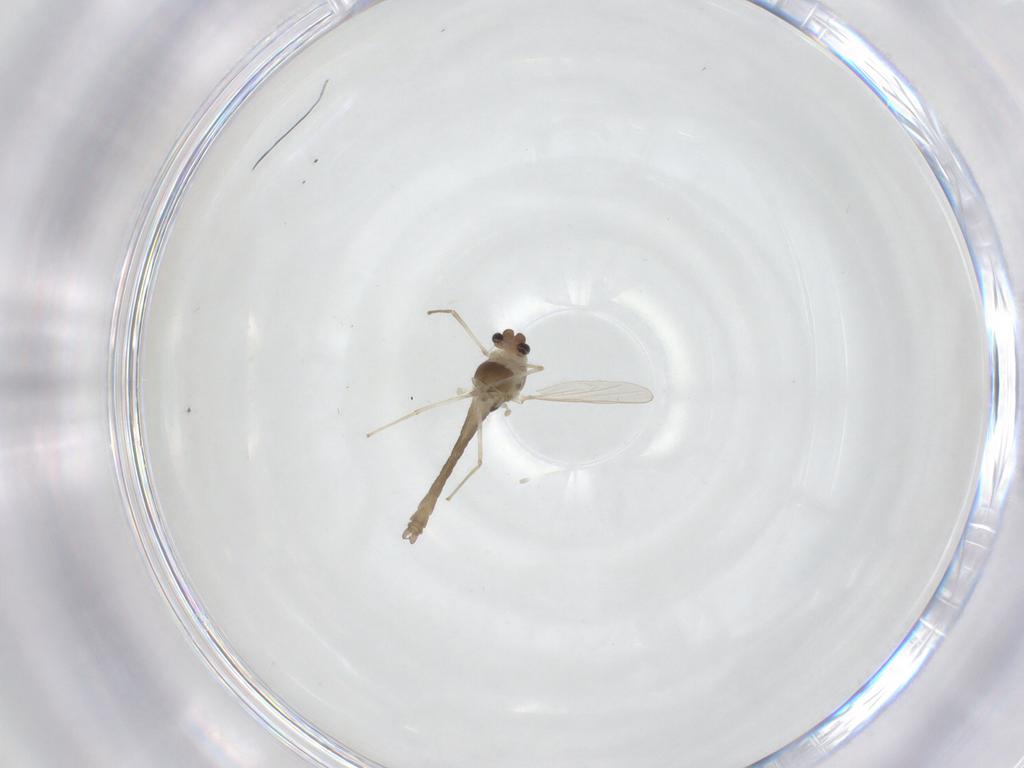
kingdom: Animalia
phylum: Arthropoda
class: Insecta
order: Diptera
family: Chironomidae
